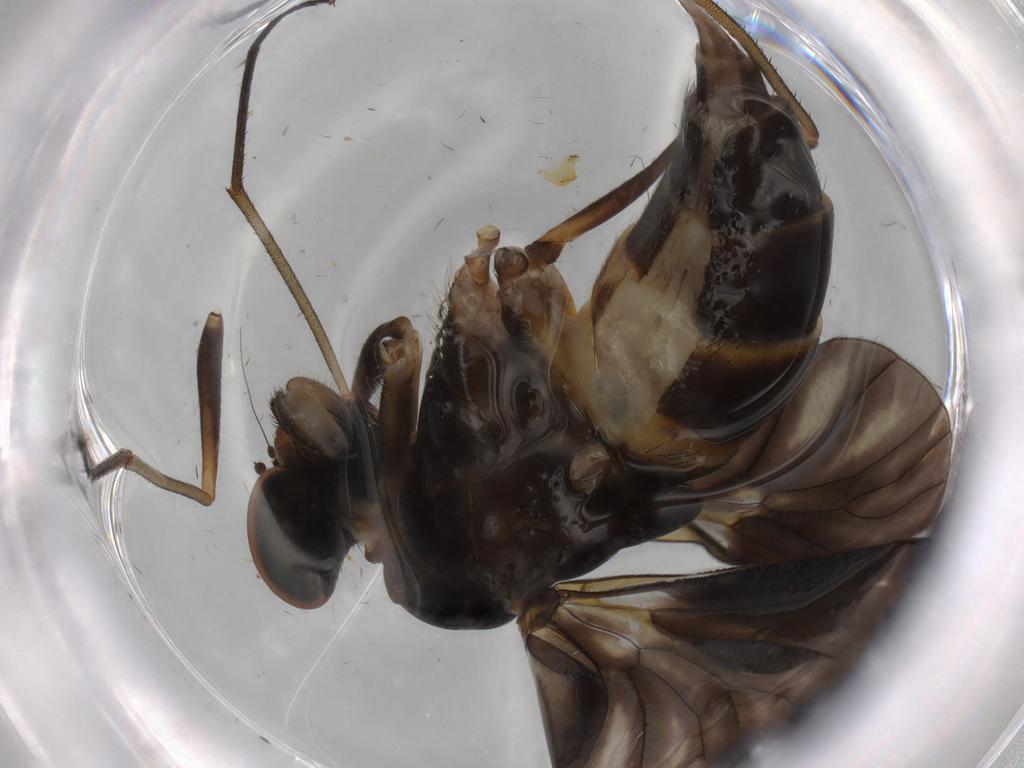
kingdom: Animalia
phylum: Arthropoda
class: Insecta
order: Diptera
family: Phoridae
